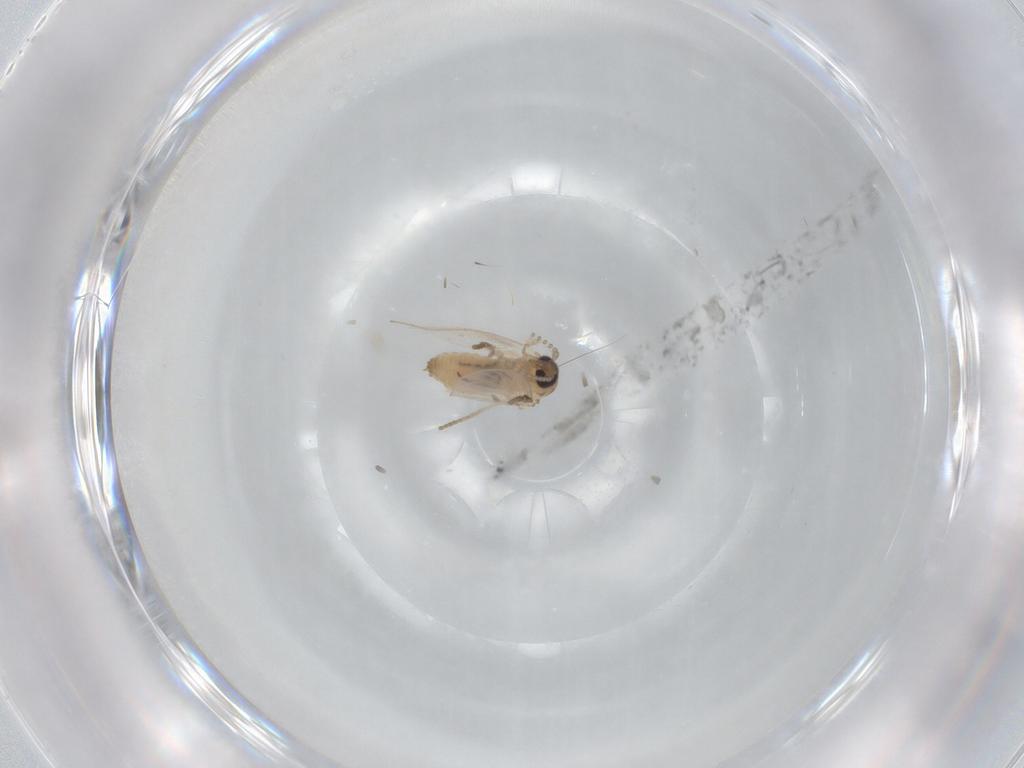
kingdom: Animalia
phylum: Arthropoda
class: Insecta
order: Diptera
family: Psychodidae
